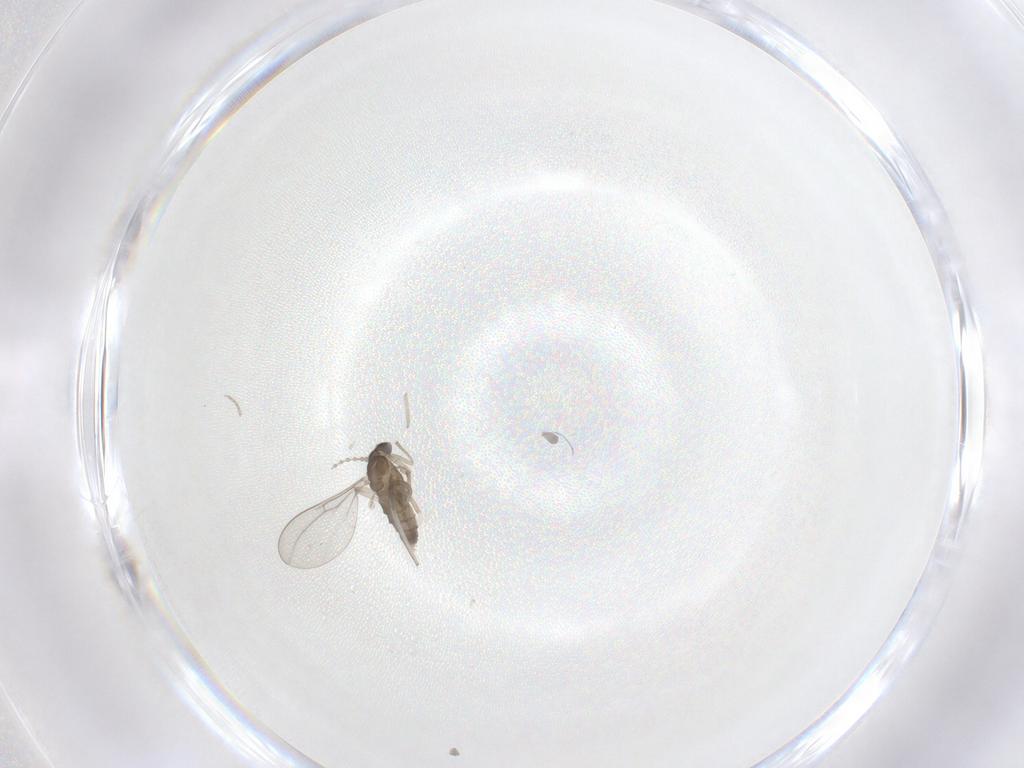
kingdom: Animalia
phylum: Arthropoda
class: Insecta
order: Diptera
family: Cecidomyiidae
